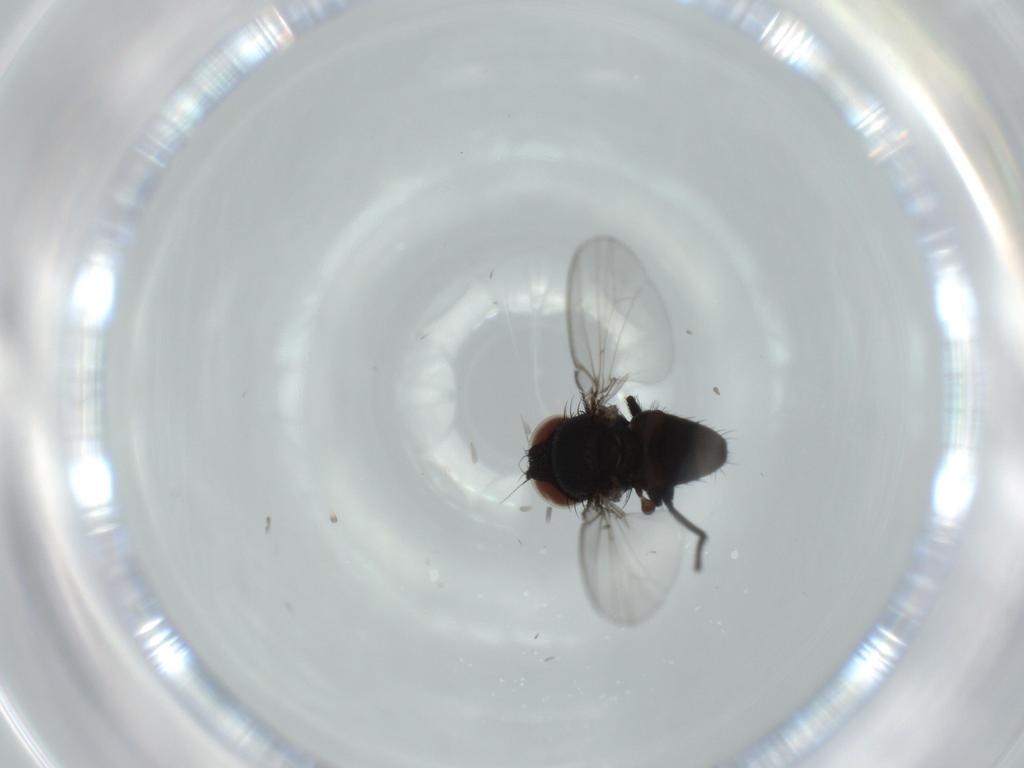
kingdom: Animalia
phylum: Arthropoda
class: Insecta
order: Diptera
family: Milichiidae
